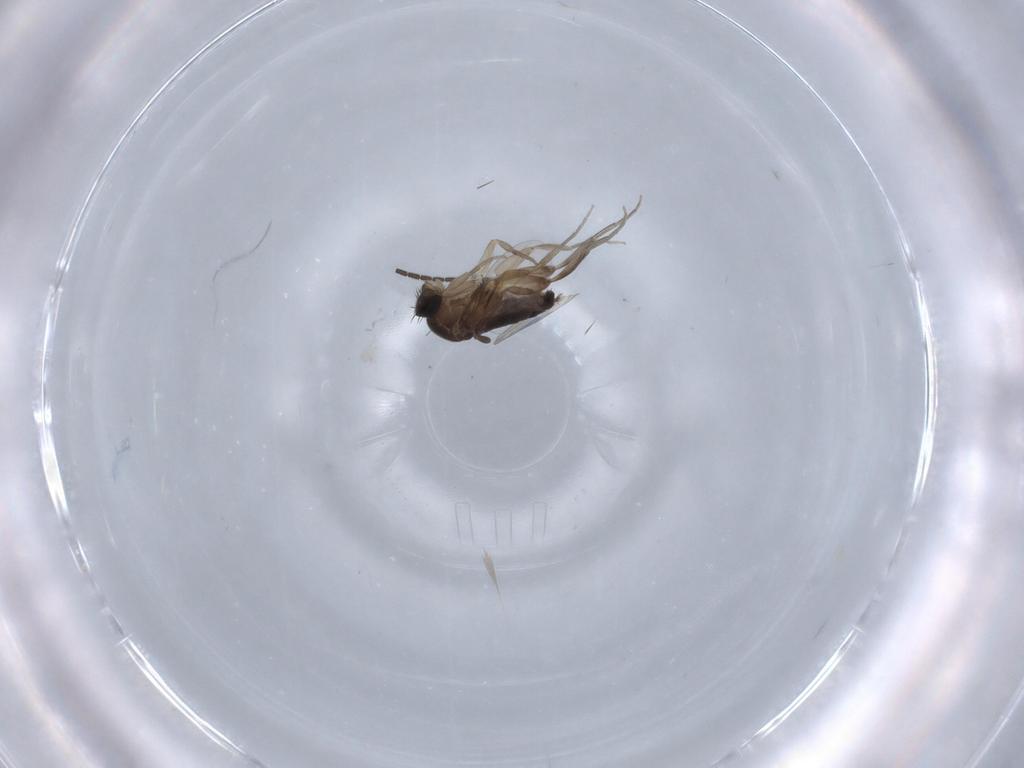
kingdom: Animalia
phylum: Arthropoda
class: Insecta
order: Diptera
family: Phoridae
